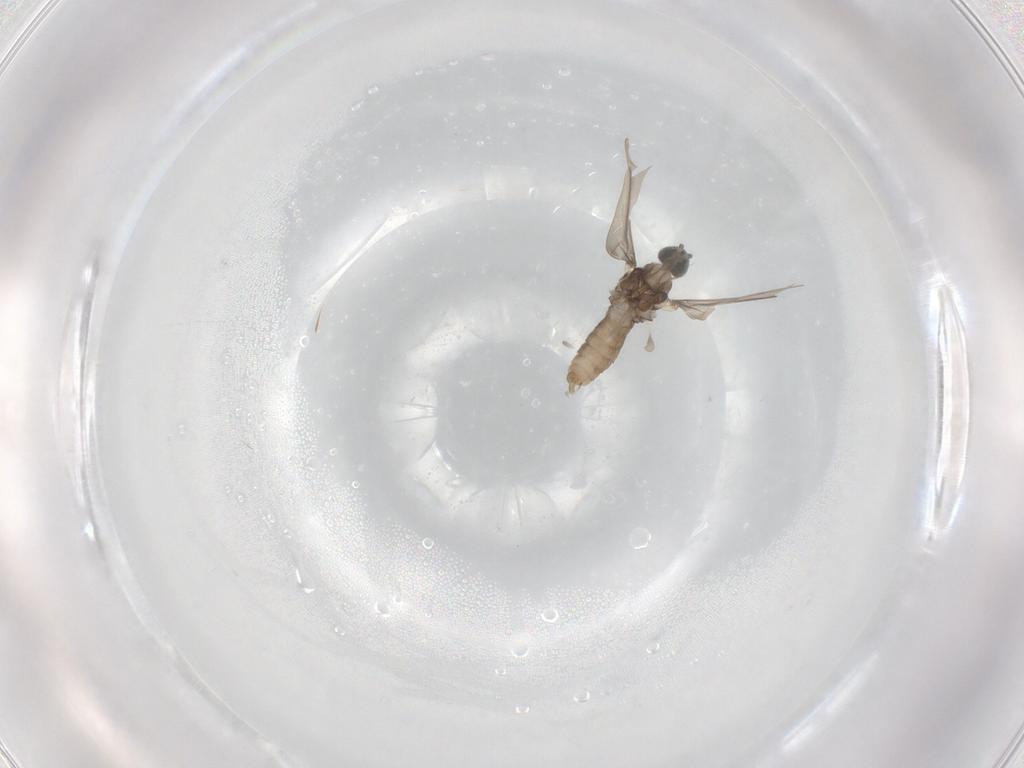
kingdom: Animalia
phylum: Arthropoda
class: Insecta
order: Diptera
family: Cecidomyiidae
